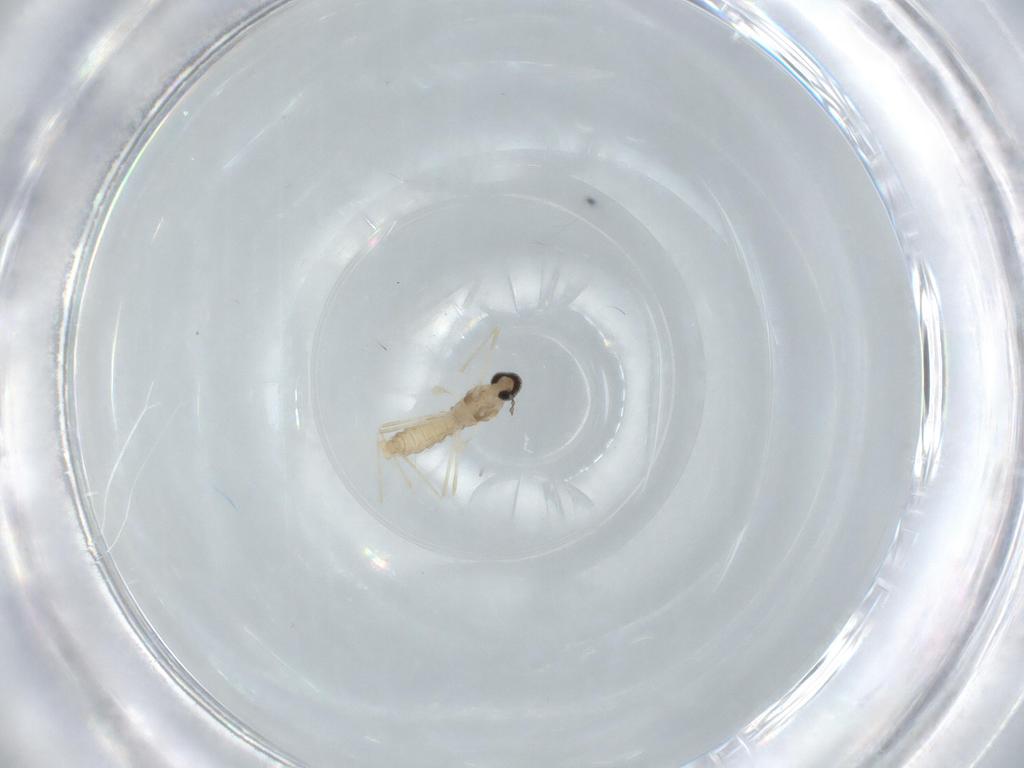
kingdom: Animalia
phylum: Arthropoda
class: Insecta
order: Diptera
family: Cecidomyiidae
